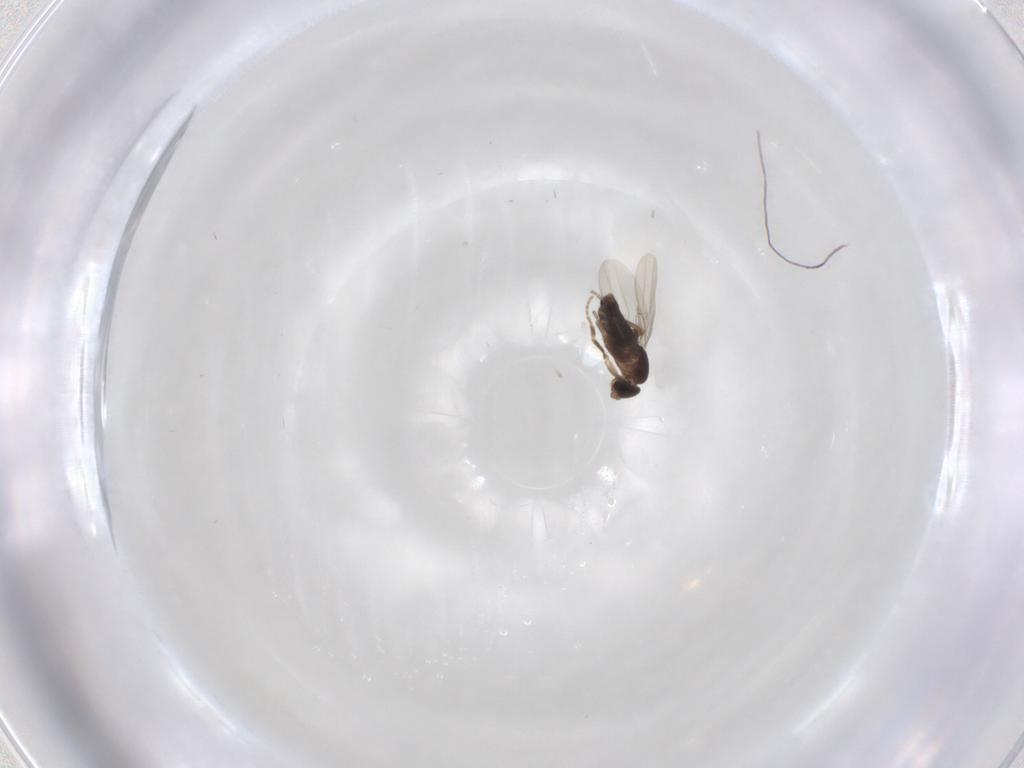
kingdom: Animalia
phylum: Arthropoda
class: Insecta
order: Diptera
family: Phoridae
